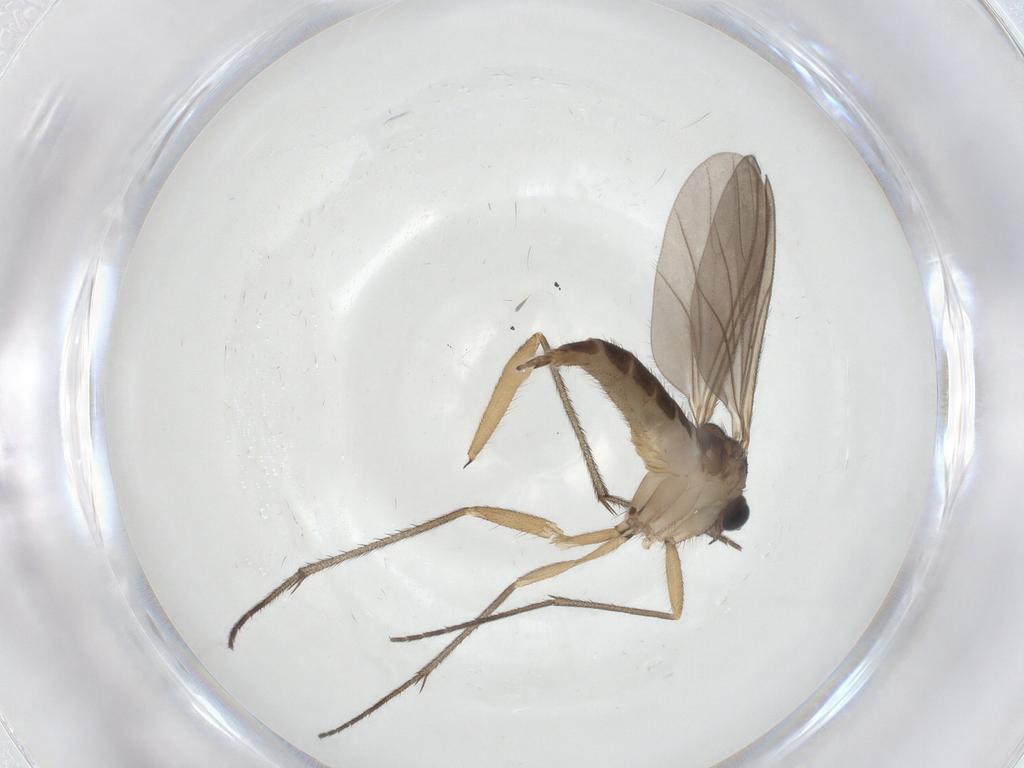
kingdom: Animalia
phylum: Arthropoda
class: Insecta
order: Diptera
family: Sciaridae
